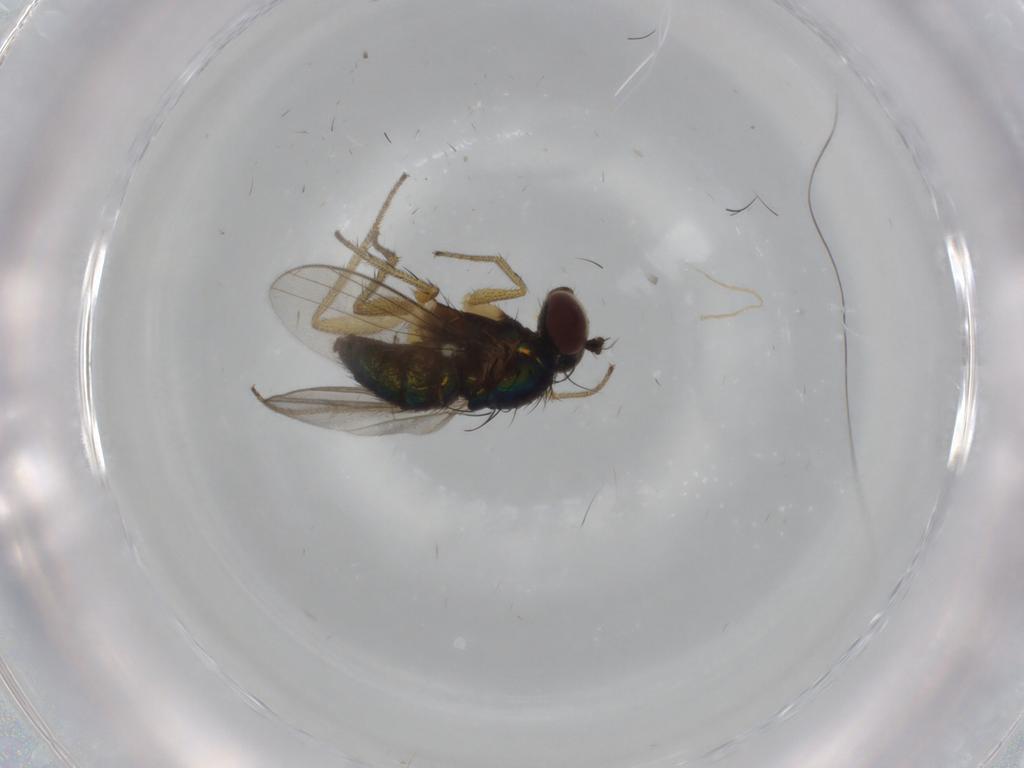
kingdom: Animalia
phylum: Arthropoda
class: Insecta
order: Diptera
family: Dolichopodidae
